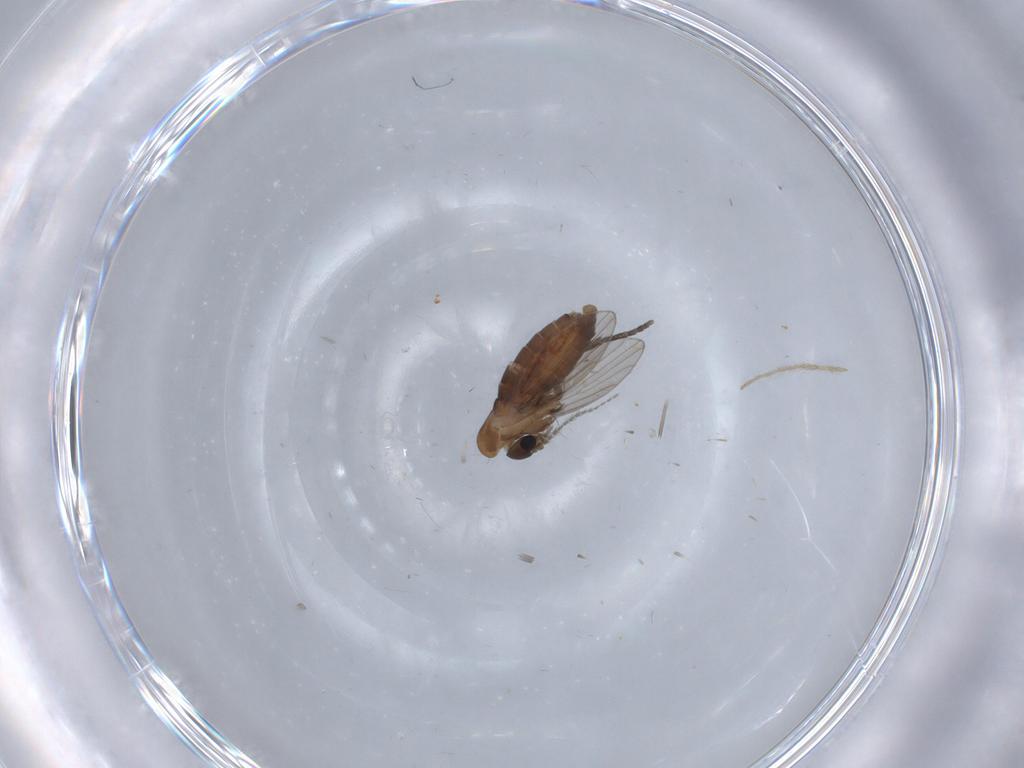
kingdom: Animalia
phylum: Arthropoda
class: Insecta
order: Diptera
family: Psychodidae
